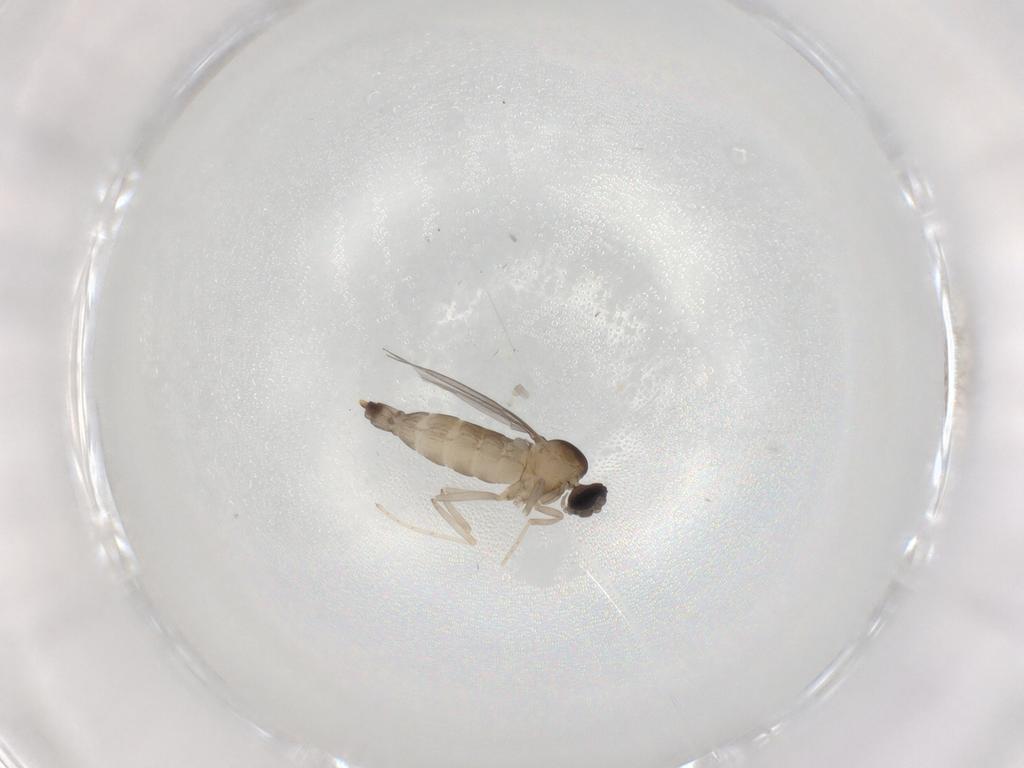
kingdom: Animalia
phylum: Arthropoda
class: Insecta
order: Diptera
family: Cecidomyiidae
